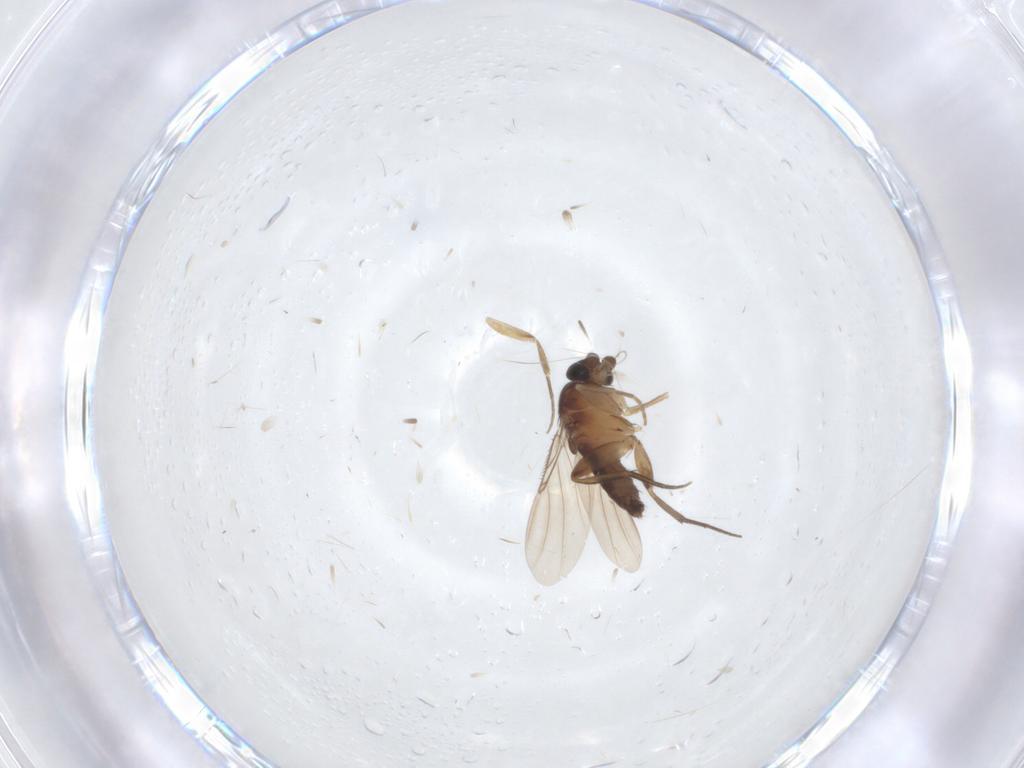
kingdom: Animalia
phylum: Arthropoda
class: Insecta
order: Diptera
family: Phoridae
